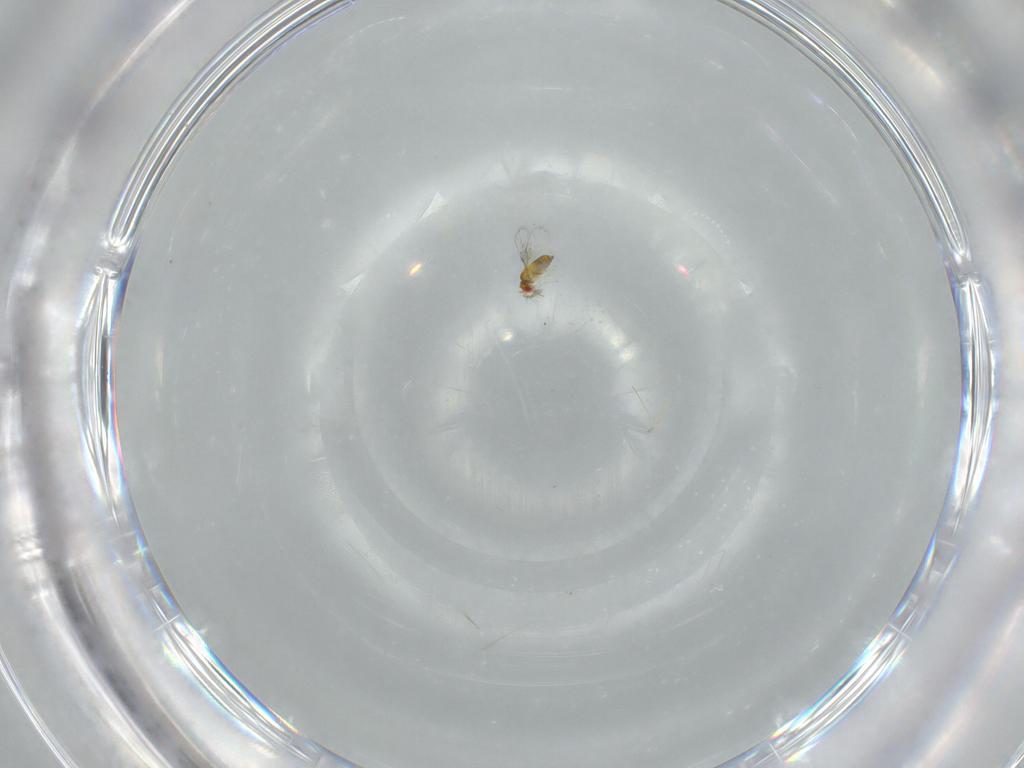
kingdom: Animalia
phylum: Arthropoda
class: Insecta
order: Hymenoptera
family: Trichogrammatidae
